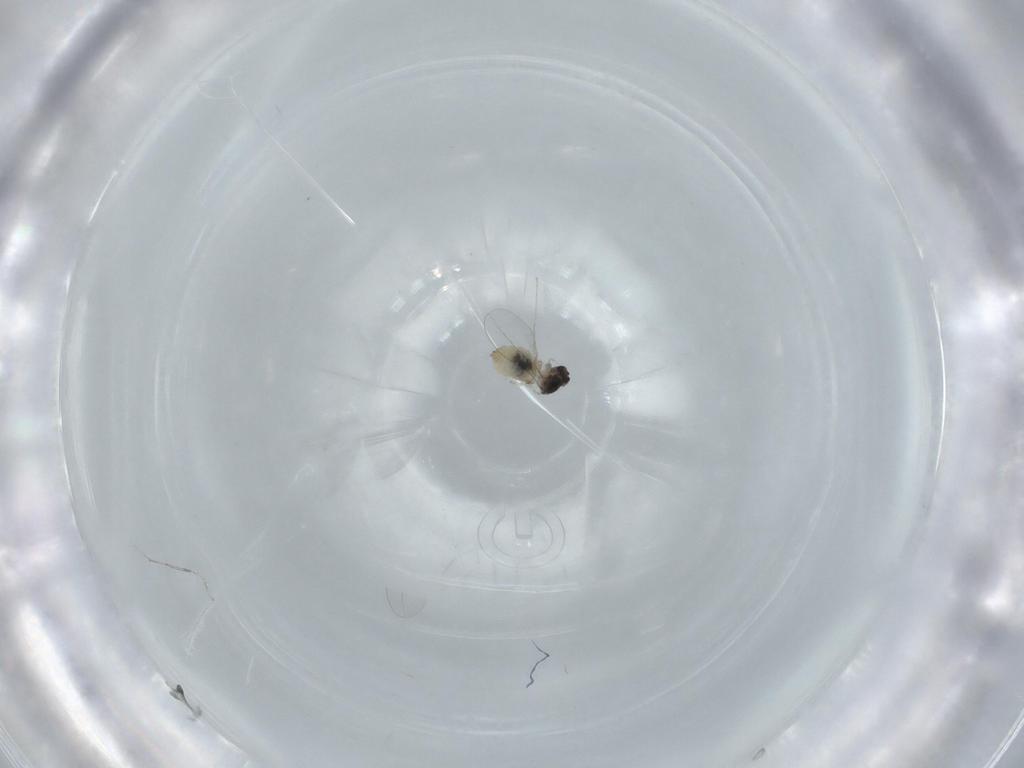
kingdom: Animalia
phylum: Arthropoda
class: Insecta
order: Diptera
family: Cecidomyiidae
